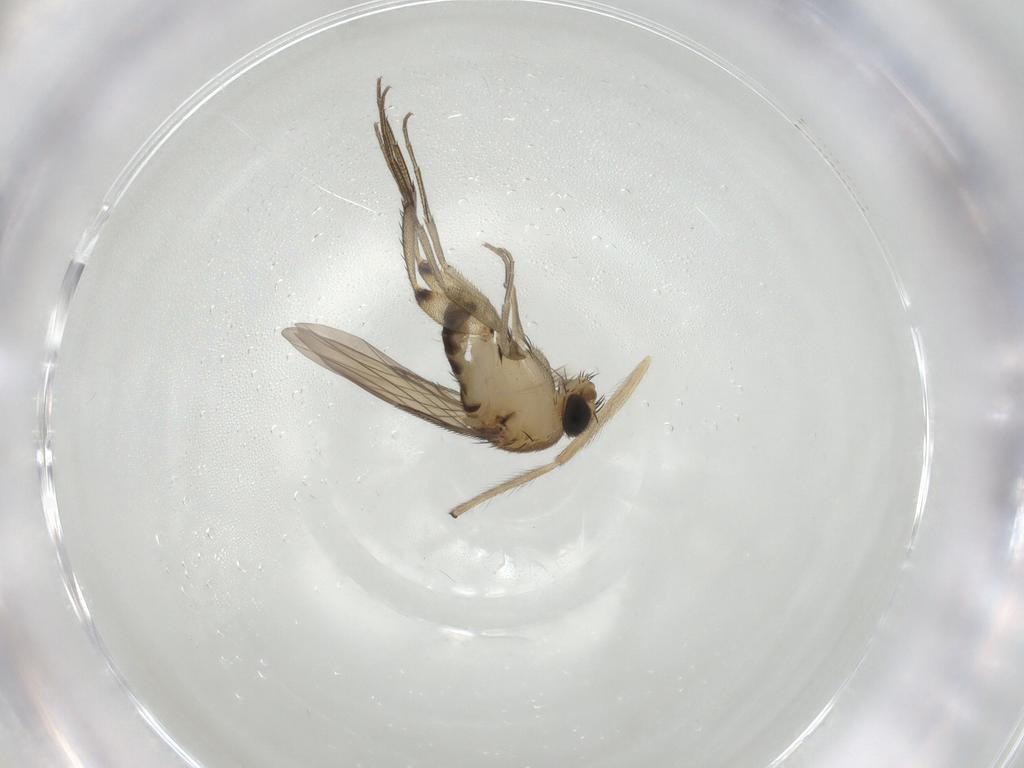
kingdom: Animalia
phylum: Arthropoda
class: Insecta
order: Diptera
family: Phoridae
